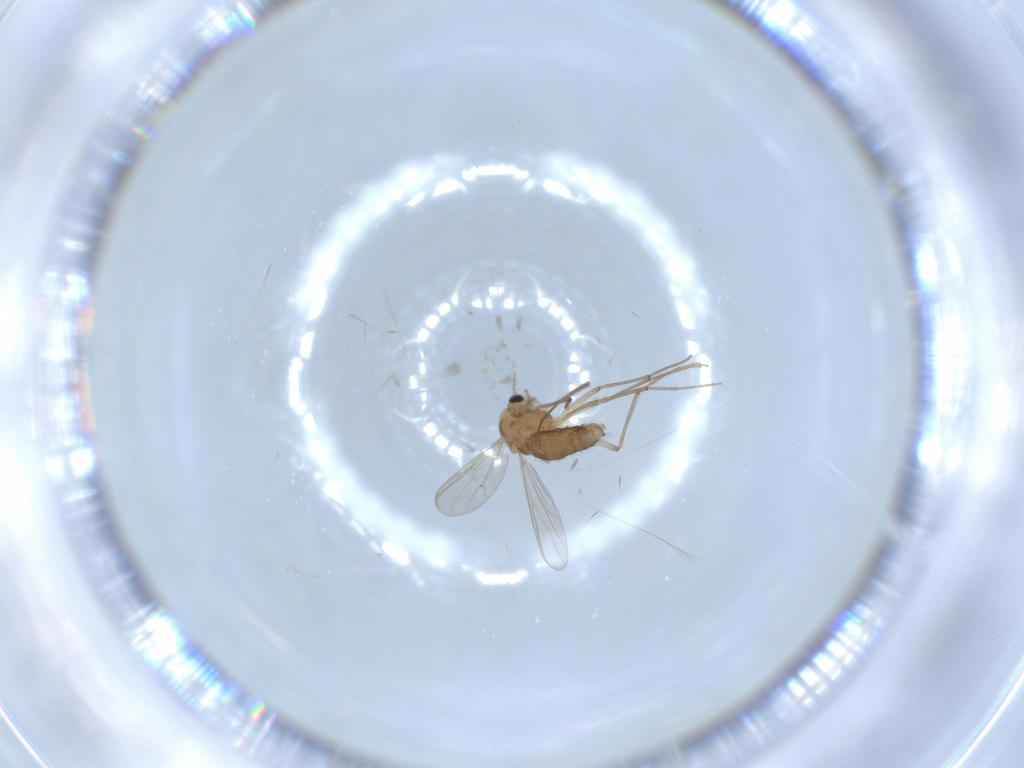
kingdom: Animalia
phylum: Arthropoda
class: Insecta
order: Diptera
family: Chironomidae
